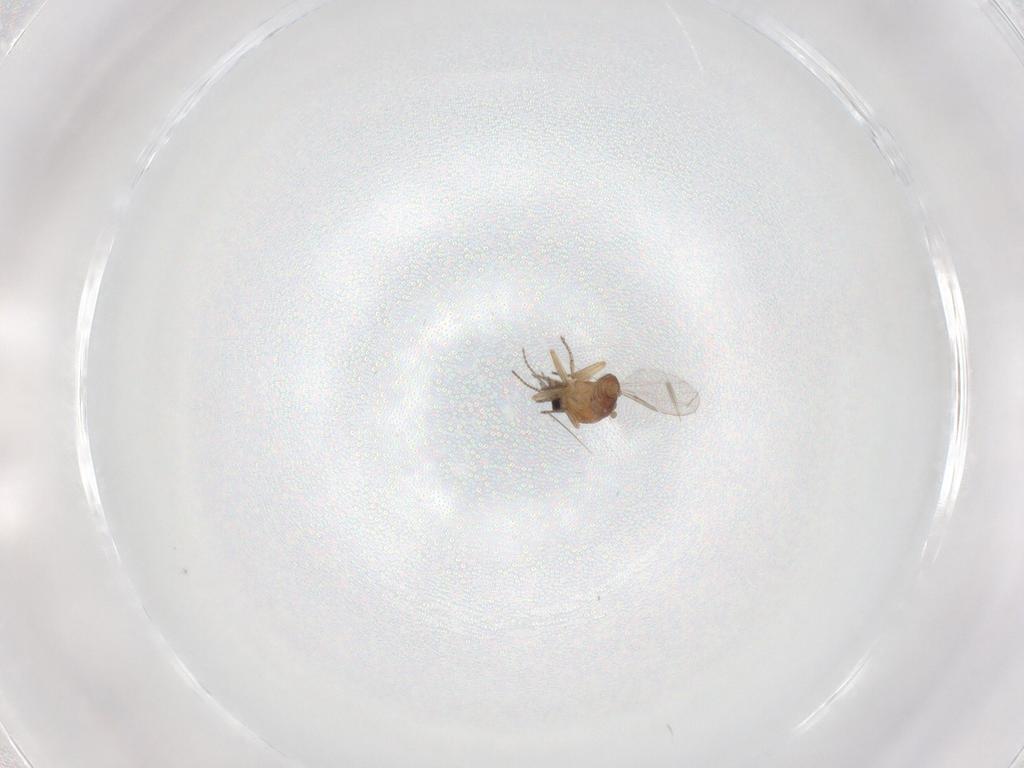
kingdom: Animalia
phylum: Arthropoda
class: Insecta
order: Diptera
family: Ceratopogonidae
